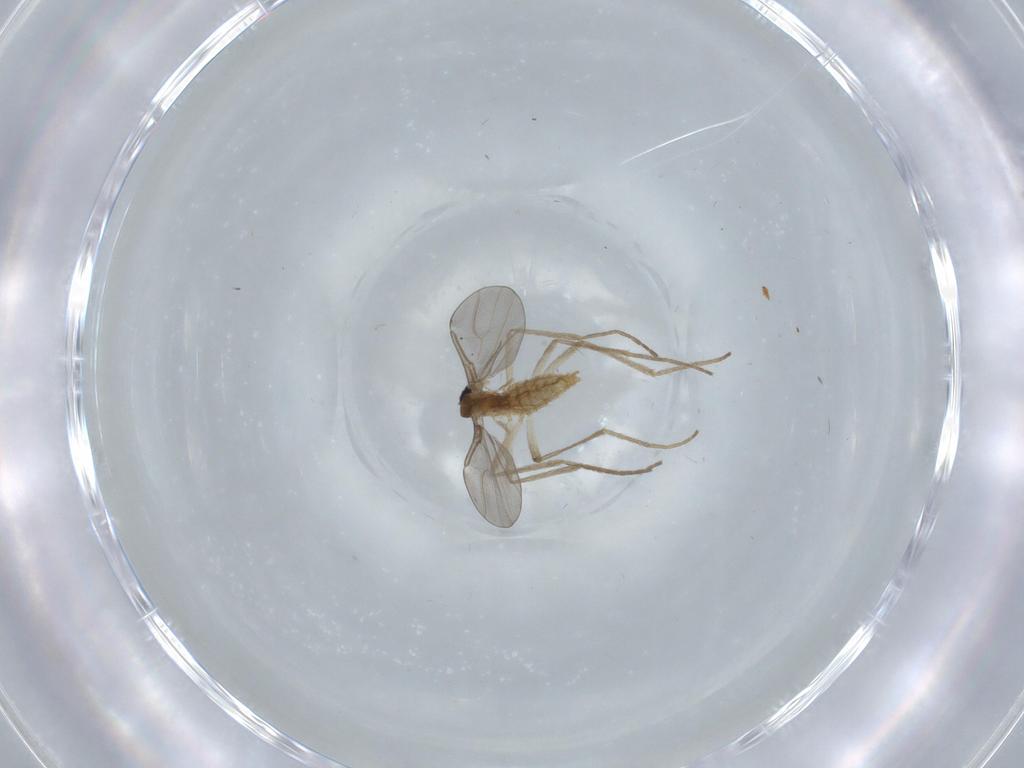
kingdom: Animalia
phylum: Arthropoda
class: Insecta
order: Diptera
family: Cecidomyiidae
